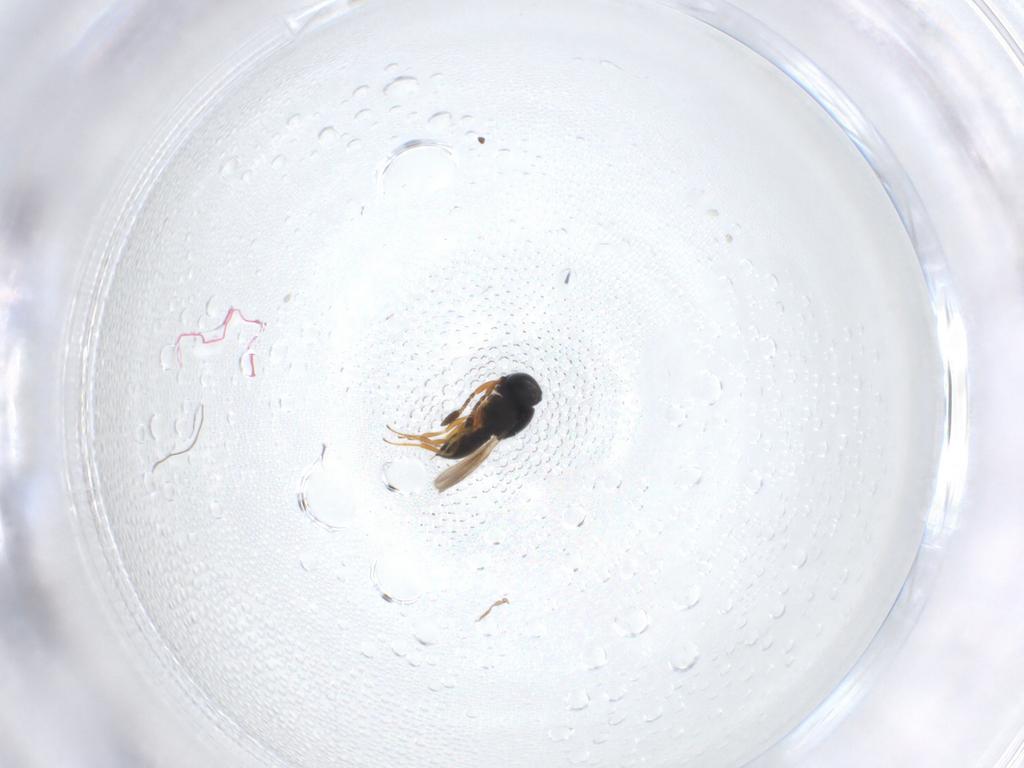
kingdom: Animalia
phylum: Arthropoda
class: Insecta
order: Hymenoptera
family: Scelionidae
